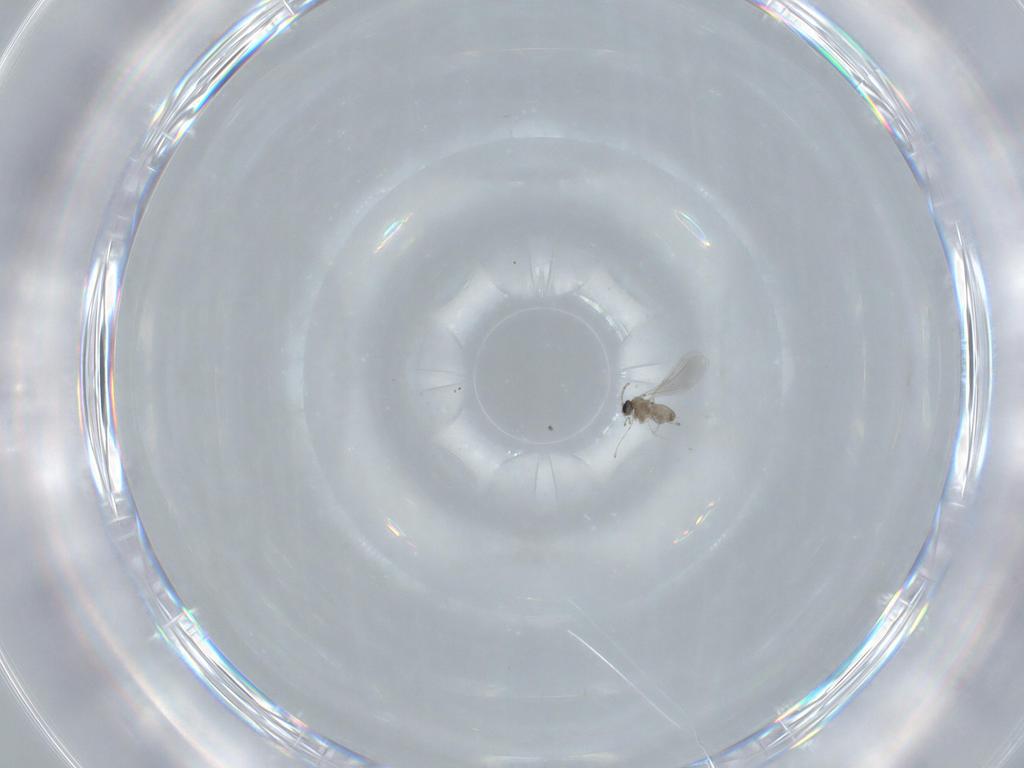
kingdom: Animalia
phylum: Arthropoda
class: Insecta
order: Diptera
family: Cecidomyiidae
